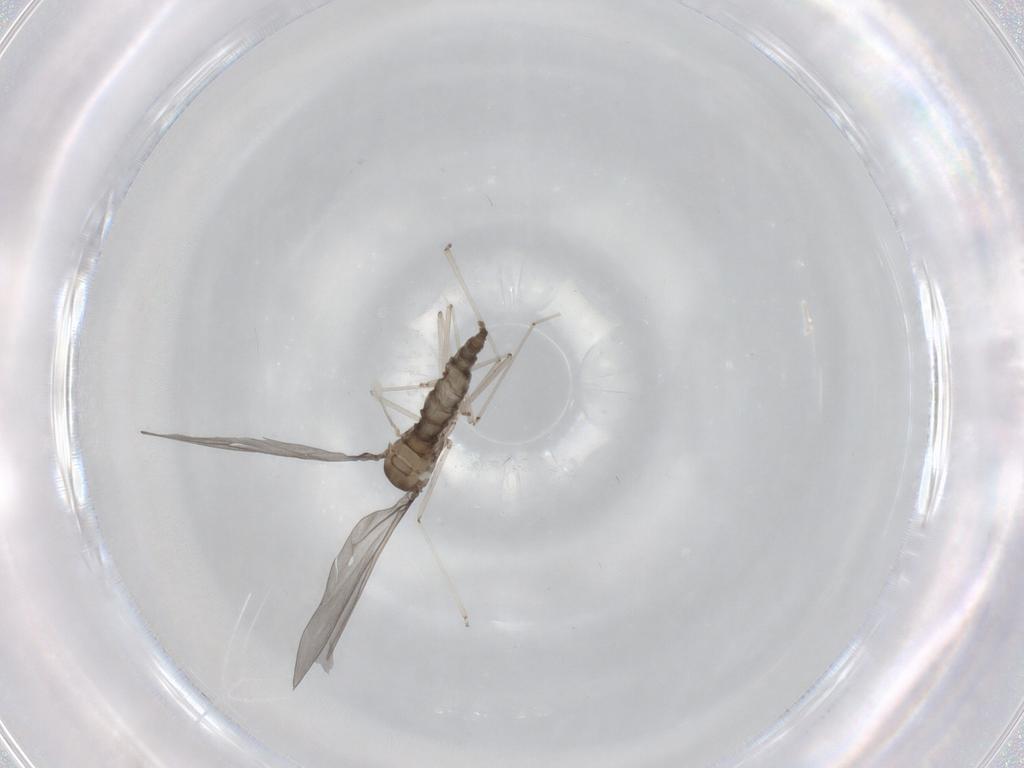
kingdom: Animalia
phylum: Arthropoda
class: Insecta
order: Diptera
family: Cecidomyiidae
